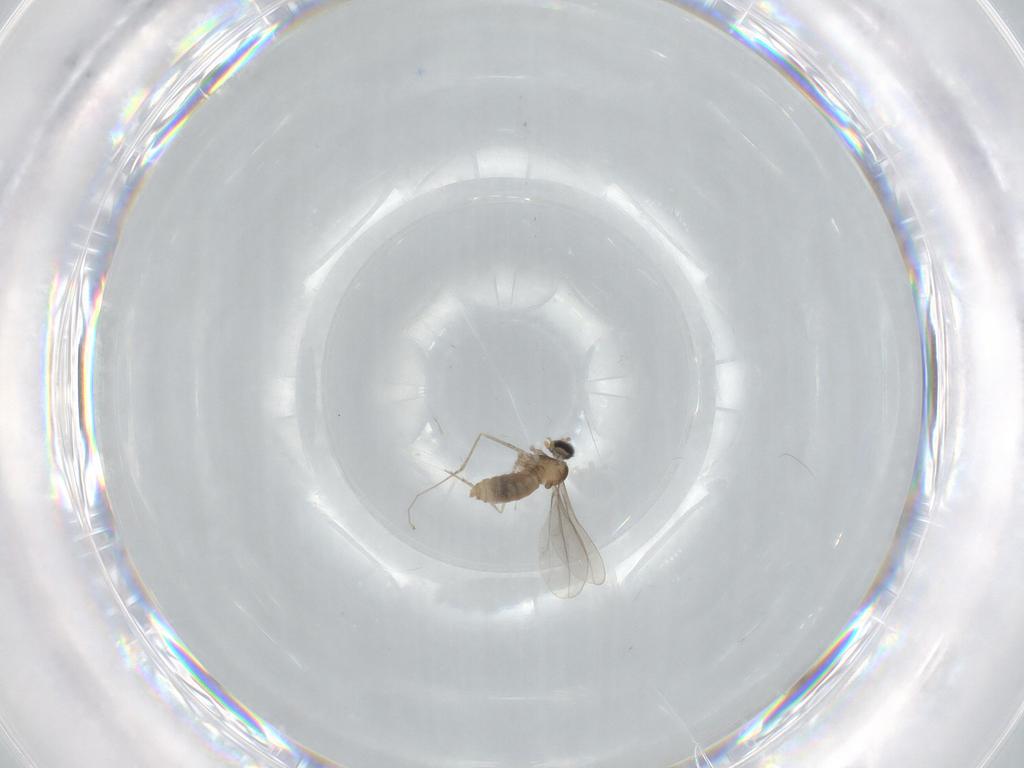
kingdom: Animalia
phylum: Arthropoda
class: Insecta
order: Diptera
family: Cecidomyiidae
